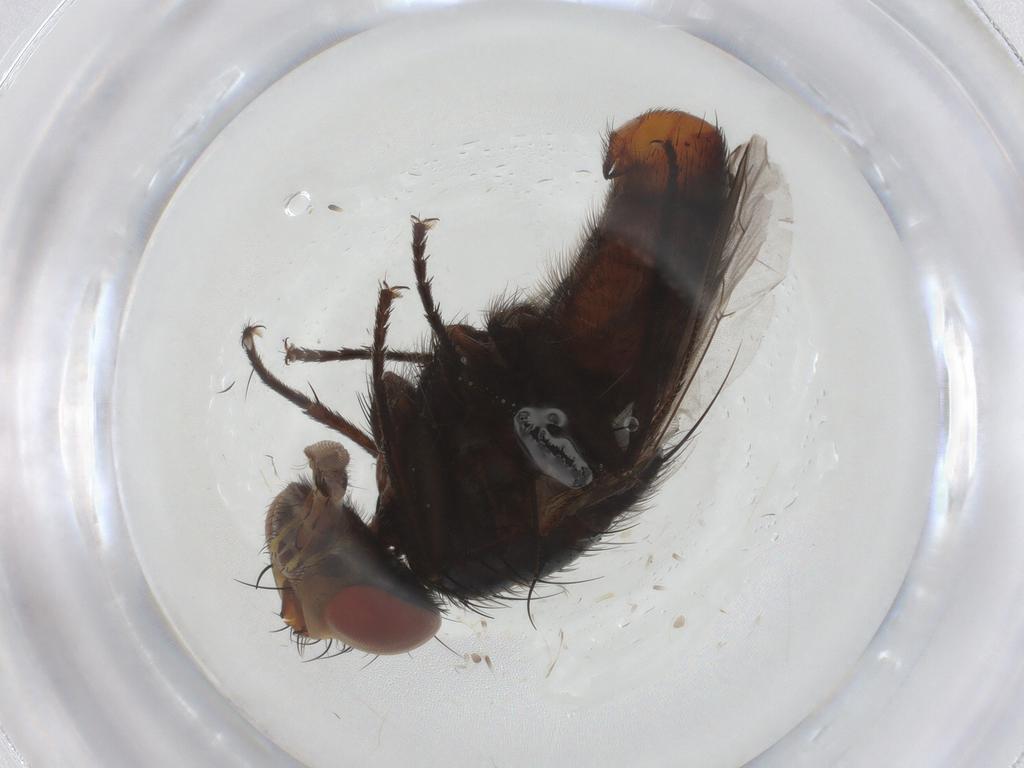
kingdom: Animalia
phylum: Arthropoda
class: Insecta
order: Diptera
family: Sarcophagidae
